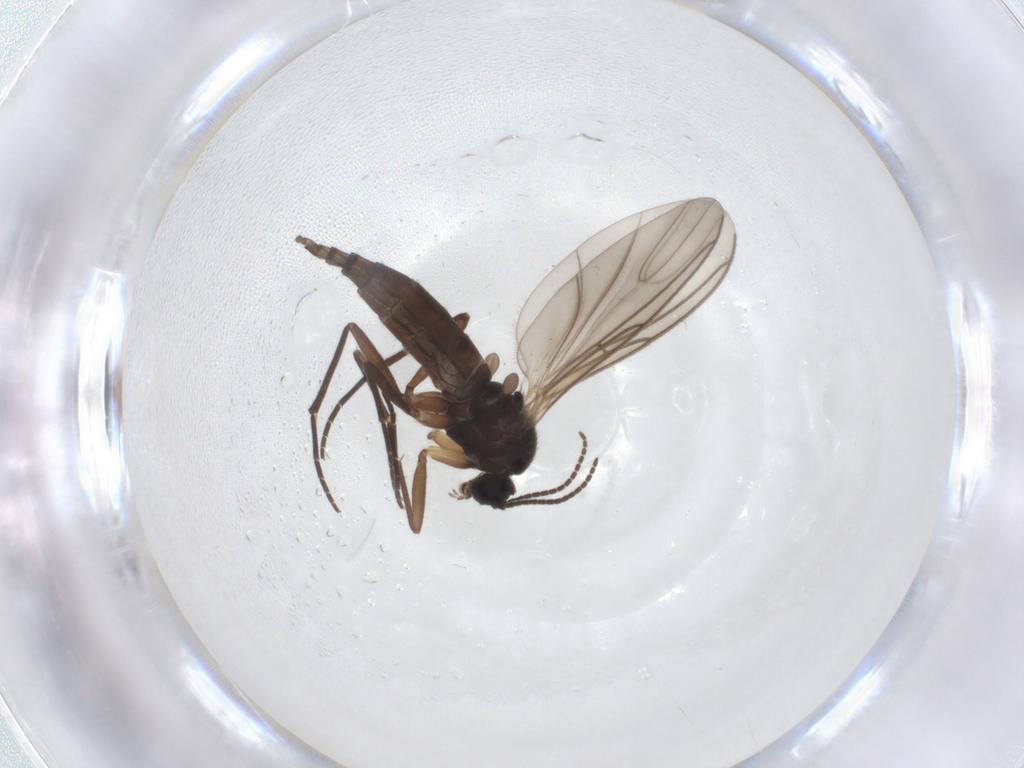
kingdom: Animalia
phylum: Arthropoda
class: Insecta
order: Diptera
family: Sciaridae
